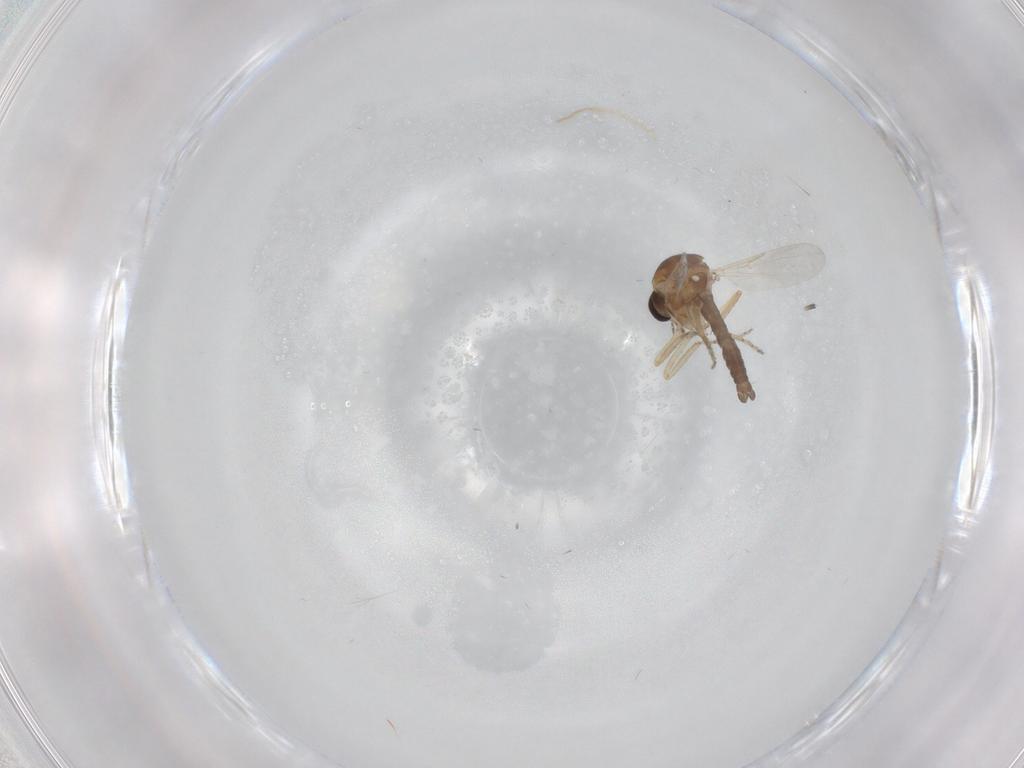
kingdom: Animalia
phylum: Arthropoda
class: Insecta
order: Diptera
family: Ceratopogonidae
